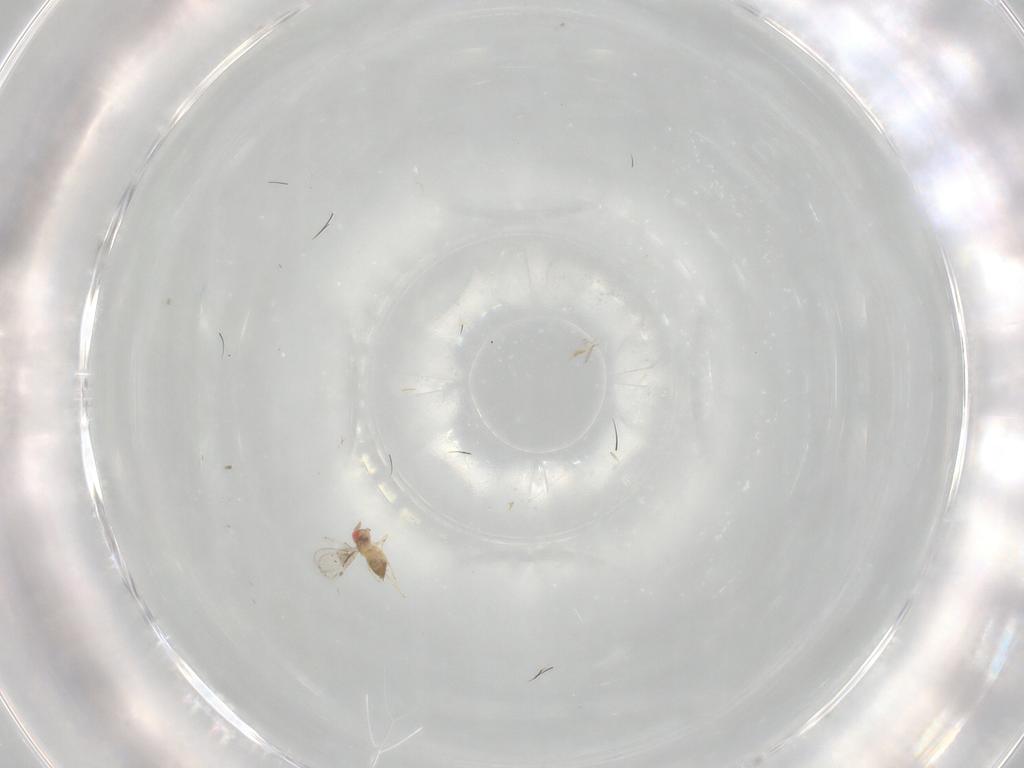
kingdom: Animalia
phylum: Arthropoda
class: Insecta
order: Hymenoptera
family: Trichogrammatidae
